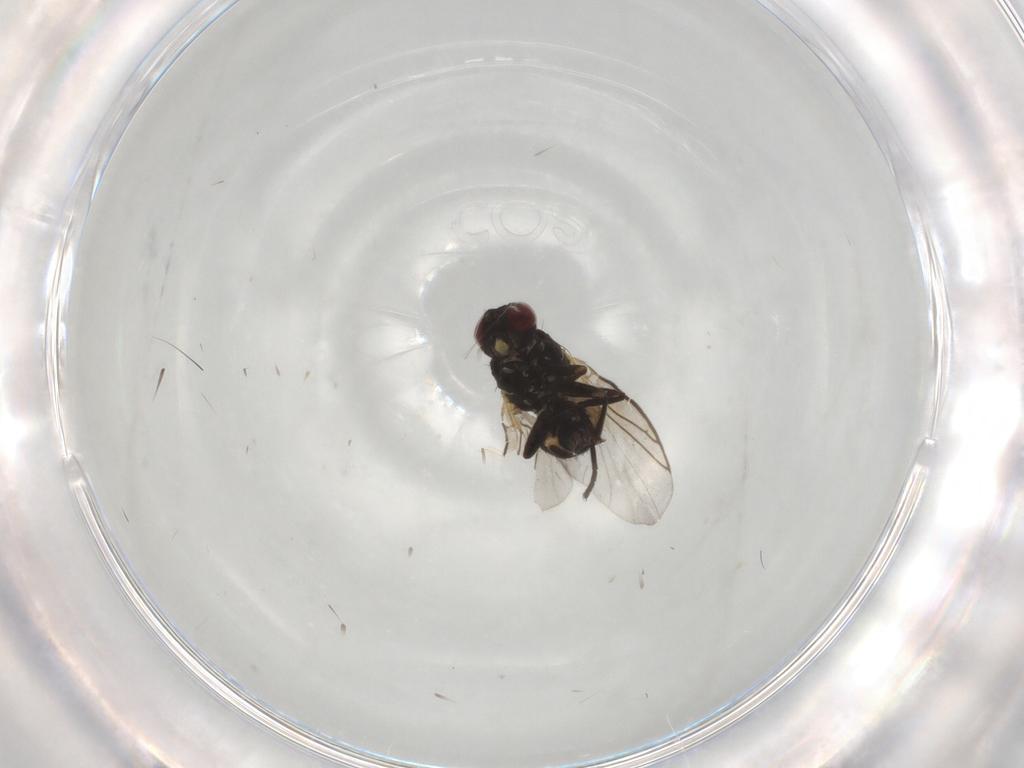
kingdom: Animalia
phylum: Arthropoda
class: Insecta
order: Diptera
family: Agromyzidae
